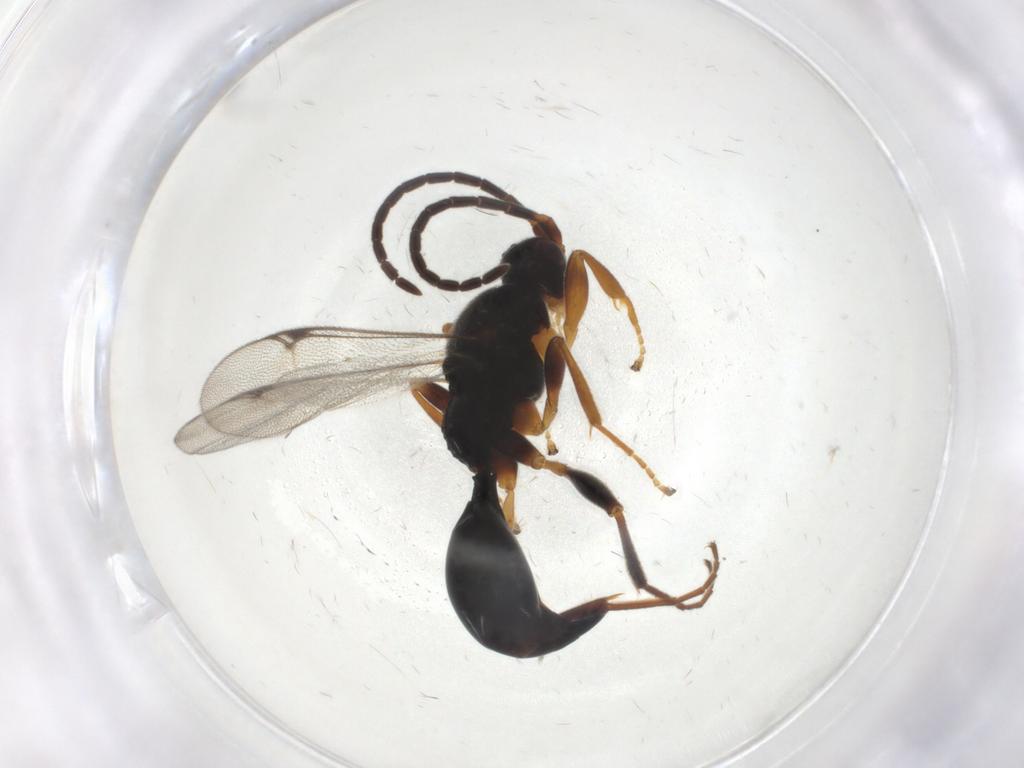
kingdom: Animalia
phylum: Arthropoda
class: Insecta
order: Hymenoptera
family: Proctotrupidae
